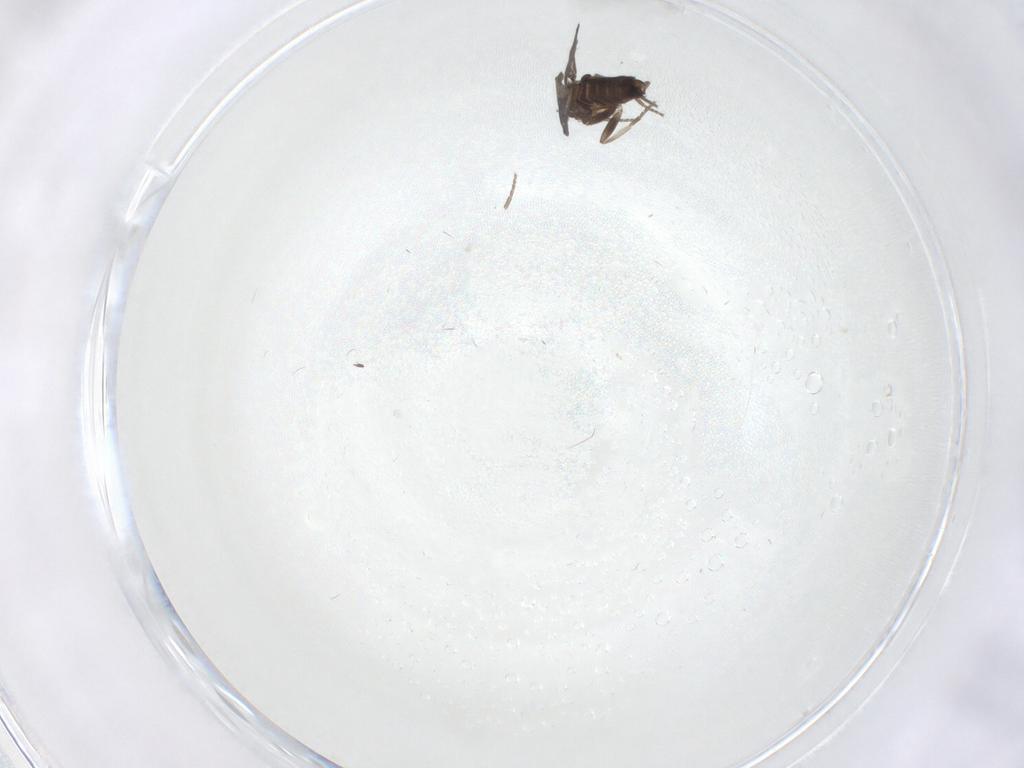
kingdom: Animalia
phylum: Arthropoda
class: Insecta
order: Diptera
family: Phoridae
